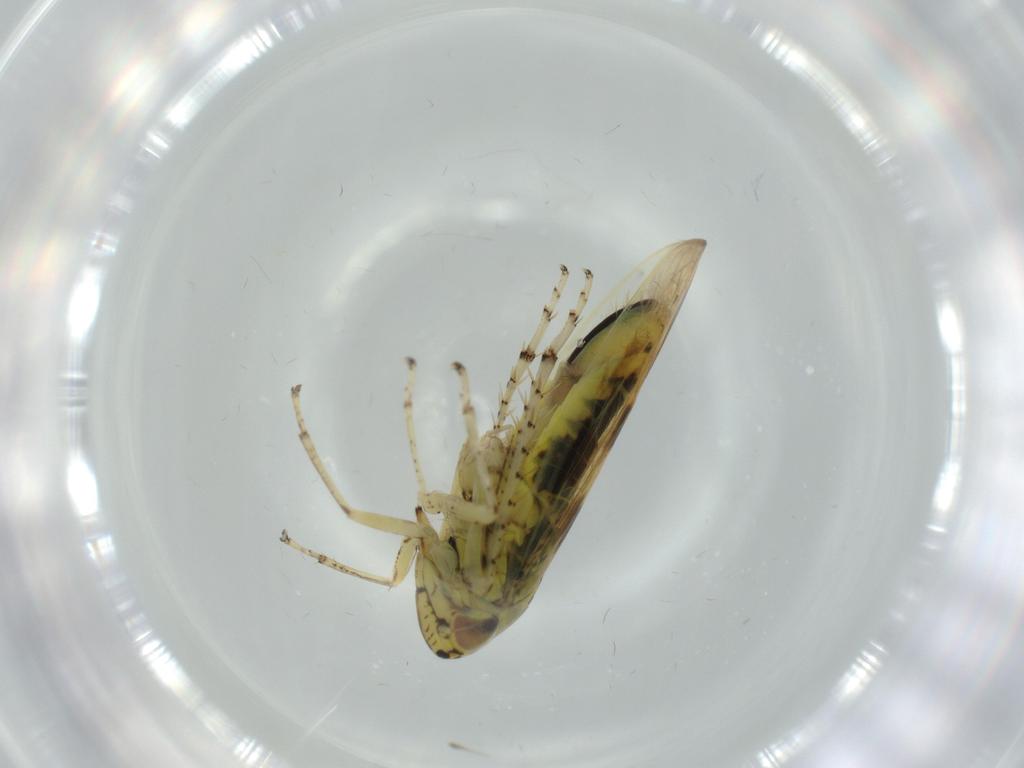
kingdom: Animalia
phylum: Arthropoda
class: Insecta
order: Hemiptera
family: Cicadellidae
